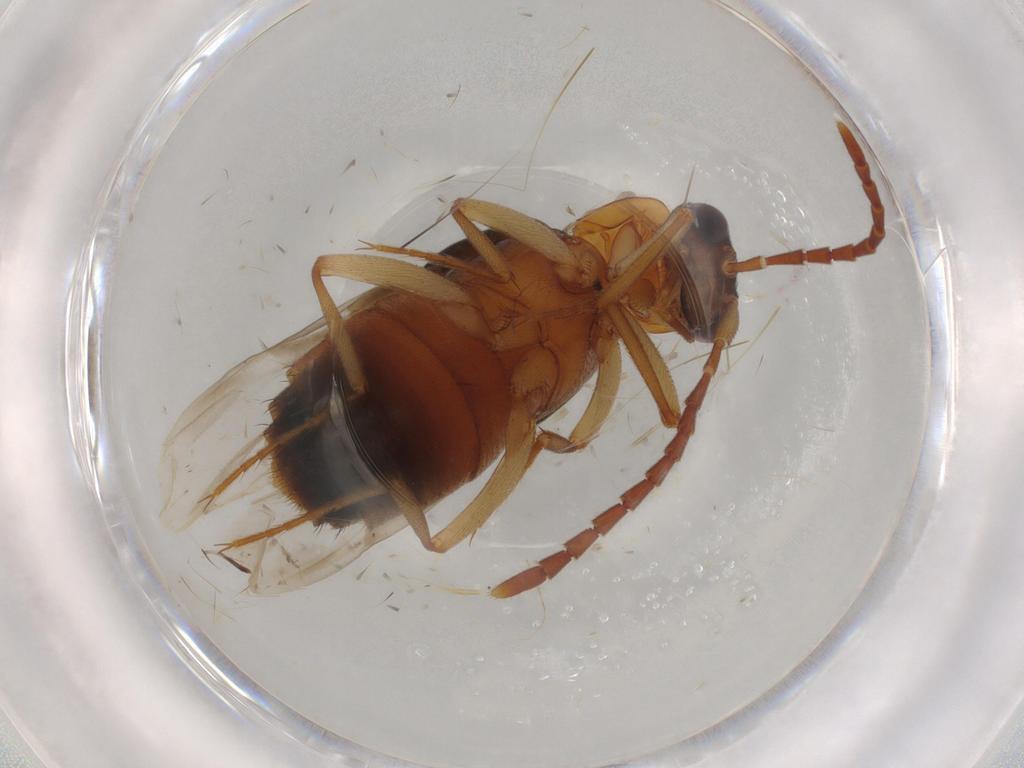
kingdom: Animalia
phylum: Arthropoda
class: Insecta
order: Coleoptera
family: Staphylinidae
